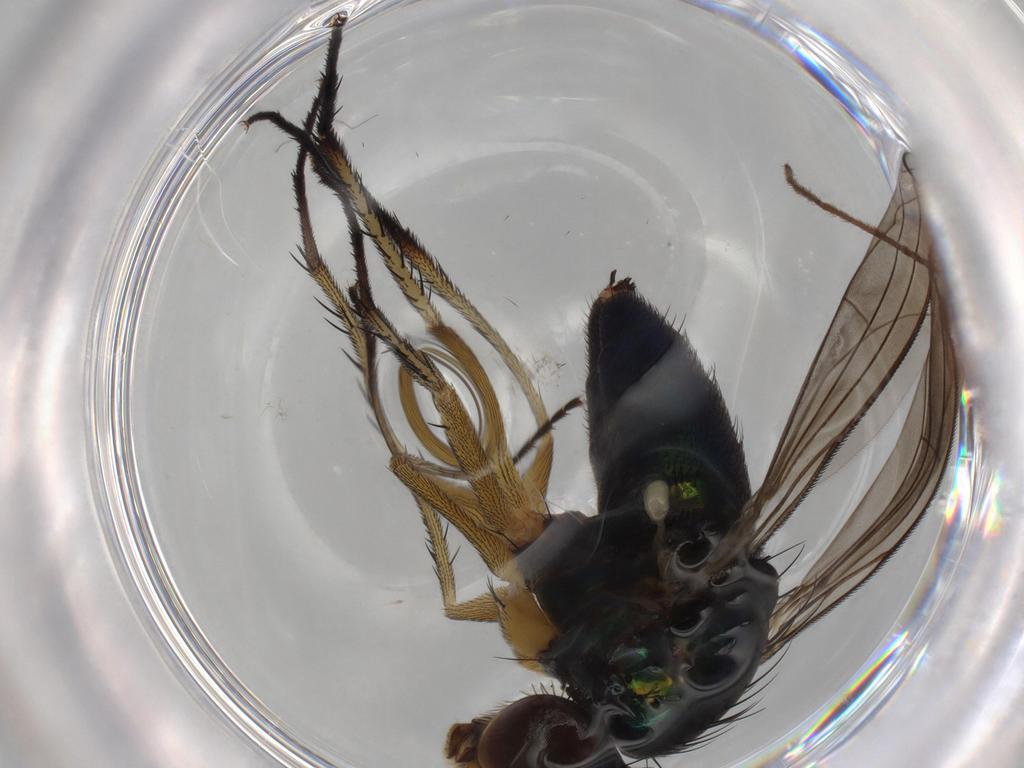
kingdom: Animalia
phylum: Arthropoda
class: Insecta
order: Diptera
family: Dolichopodidae
